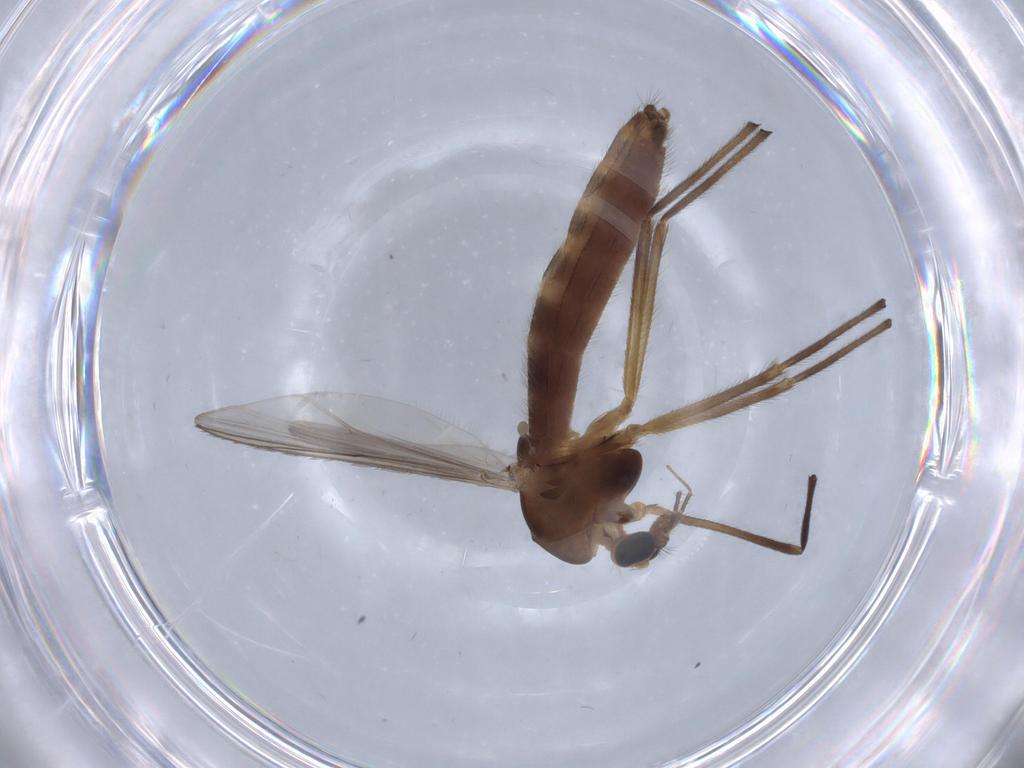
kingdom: Animalia
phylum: Arthropoda
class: Insecta
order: Diptera
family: Chironomidae
